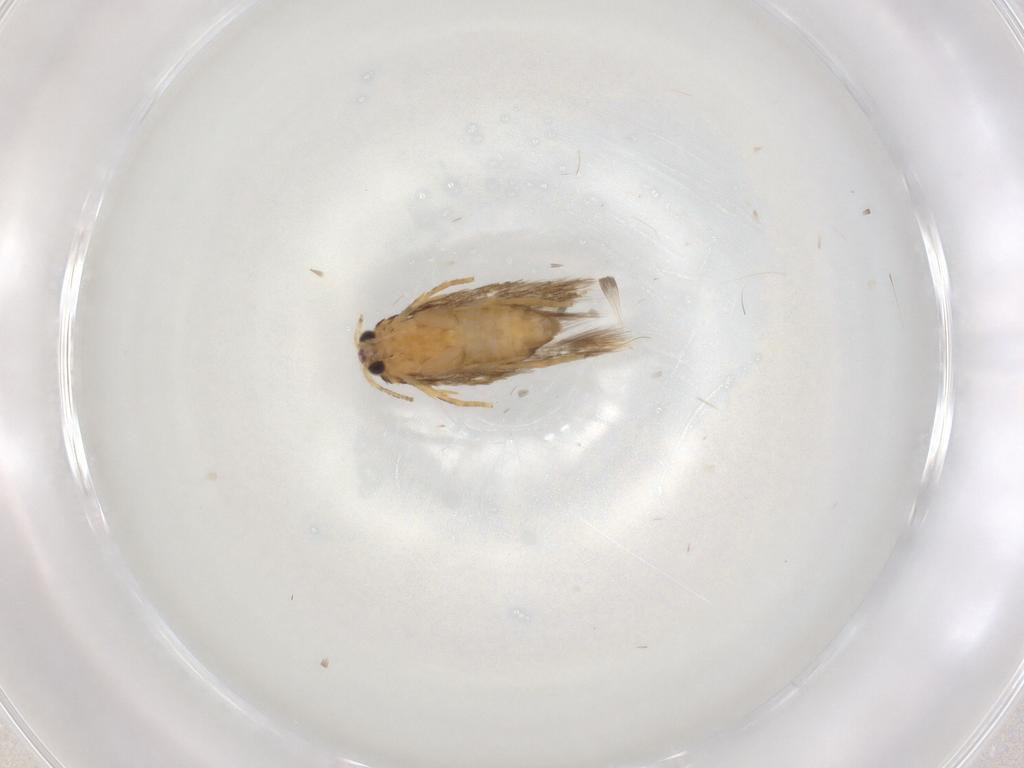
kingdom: Animalia
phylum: Arthropoda
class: Insecta
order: Lepidoptera
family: Nepticulidae
